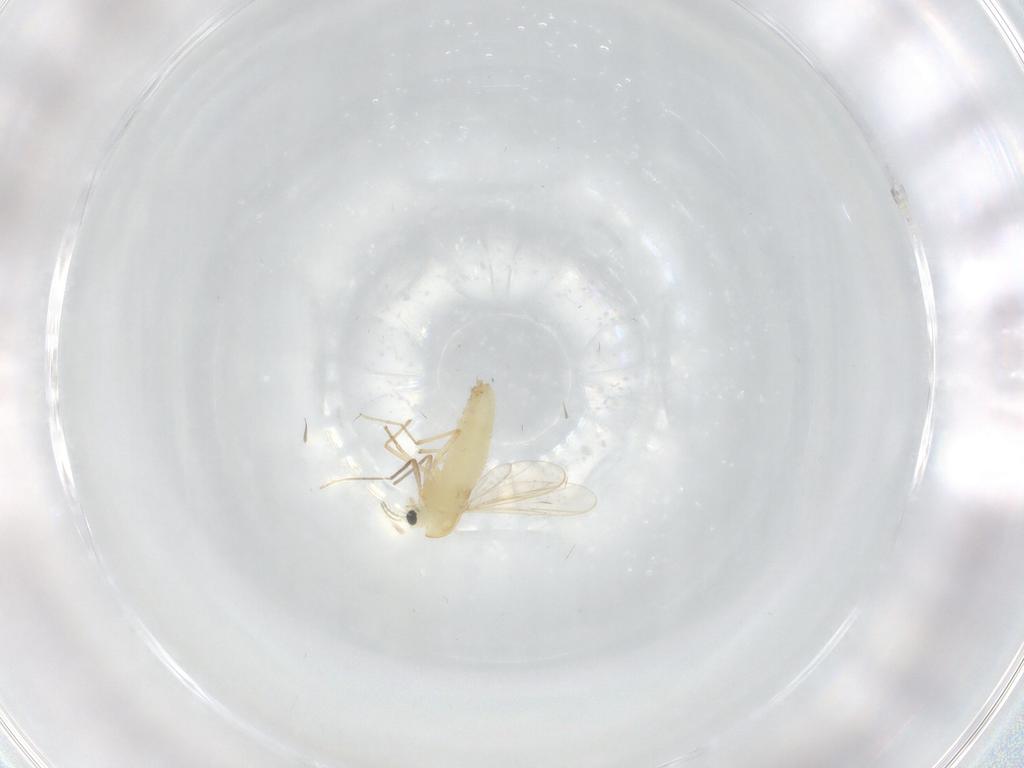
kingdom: Animalia
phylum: Arthropoda
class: Insecta
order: Diptera
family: Chironomidae
